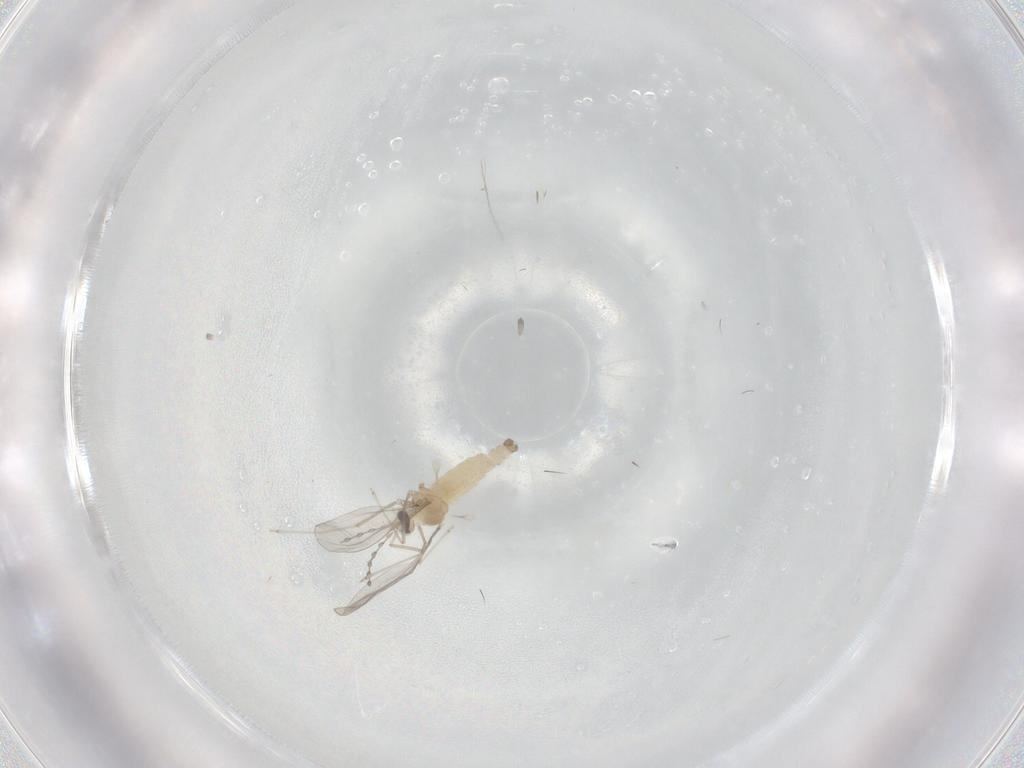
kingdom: Animalia
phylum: Arthropoda
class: Insecta
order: Diptera
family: Cecidomyiidae
